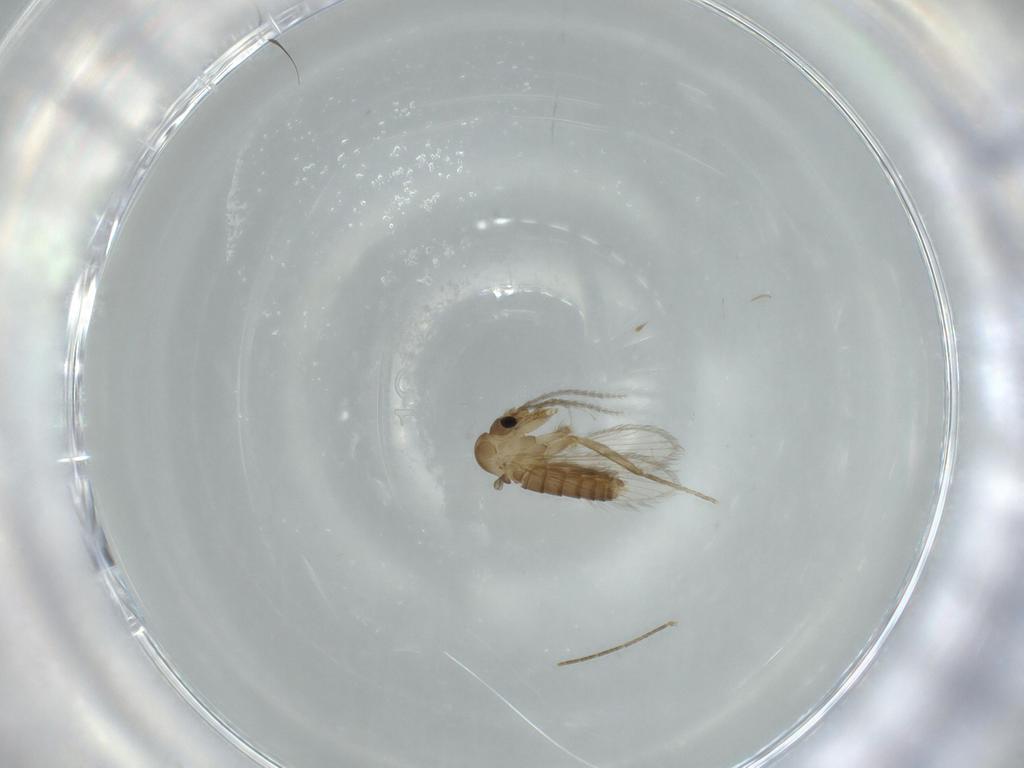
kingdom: Animalia
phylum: Arthropoda
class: Insecta
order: Diptera
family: Psychodidae
